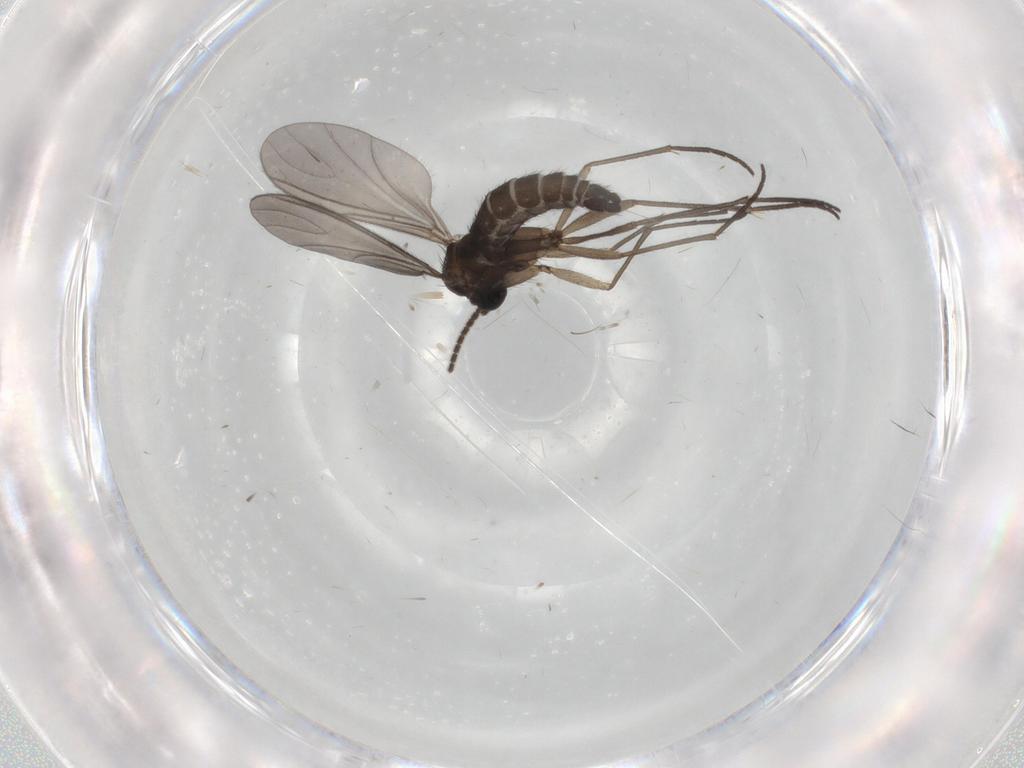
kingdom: Animalia
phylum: Arthropoda
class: Insecta
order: Diptera
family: Sciaridae
